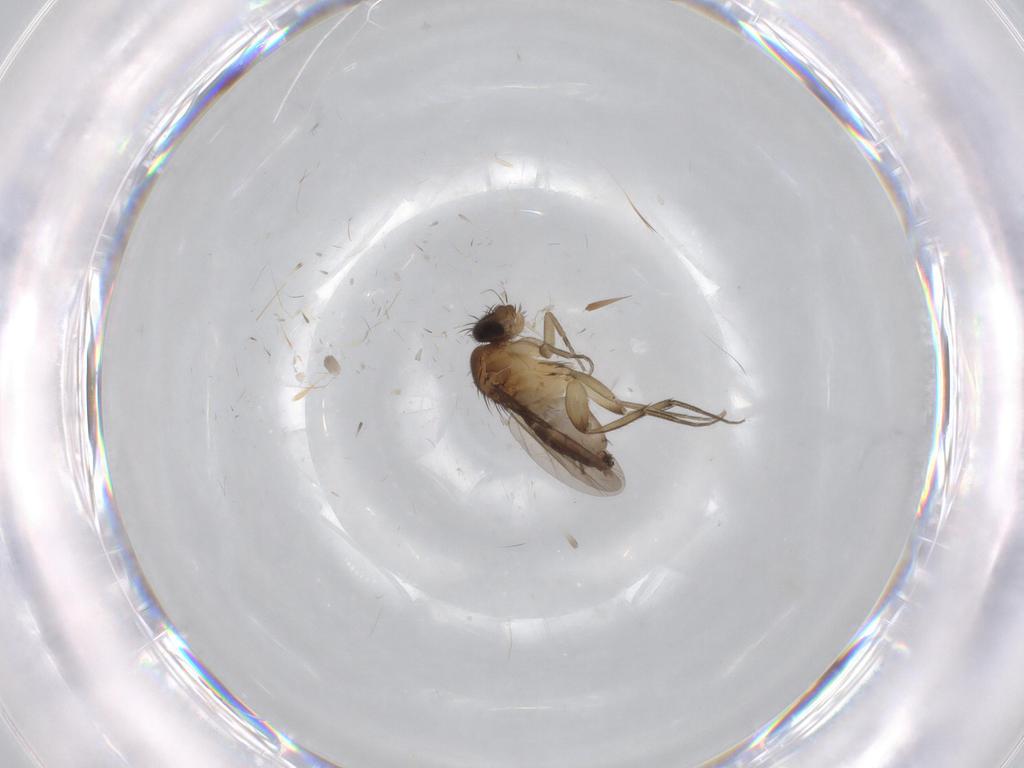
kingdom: Animalia
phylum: Arthropoda
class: Insecta
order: Diptera
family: Phoridae
